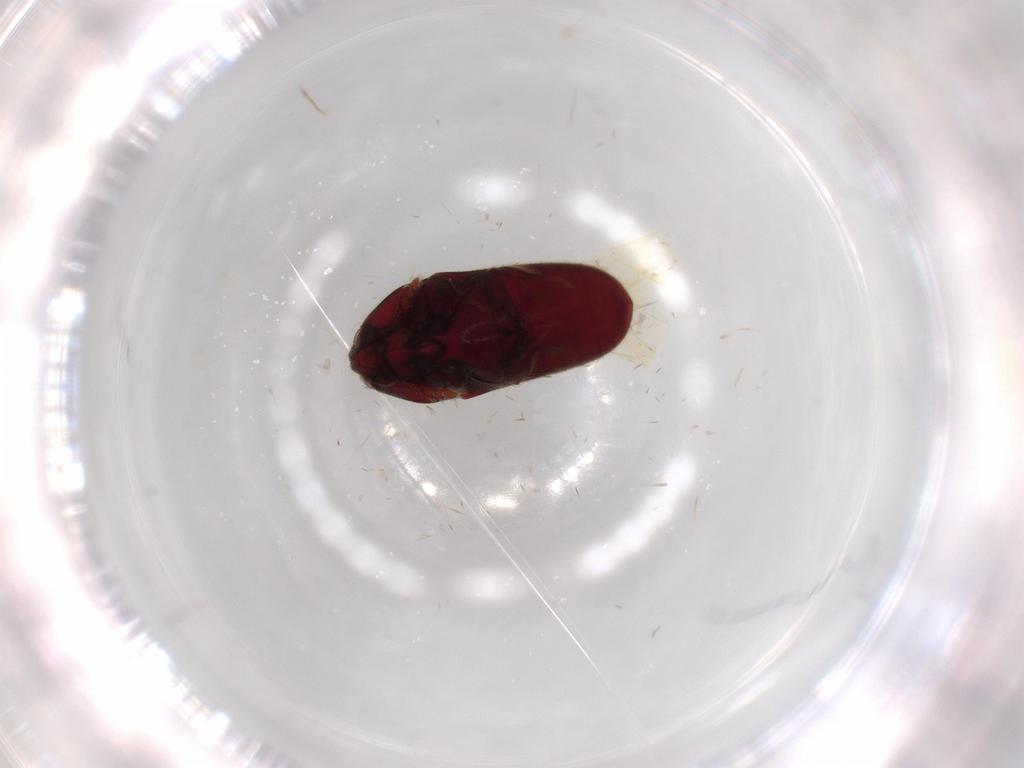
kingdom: Animalia
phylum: Arthropoda
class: Insecta
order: Coleoptera
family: Throscidae
